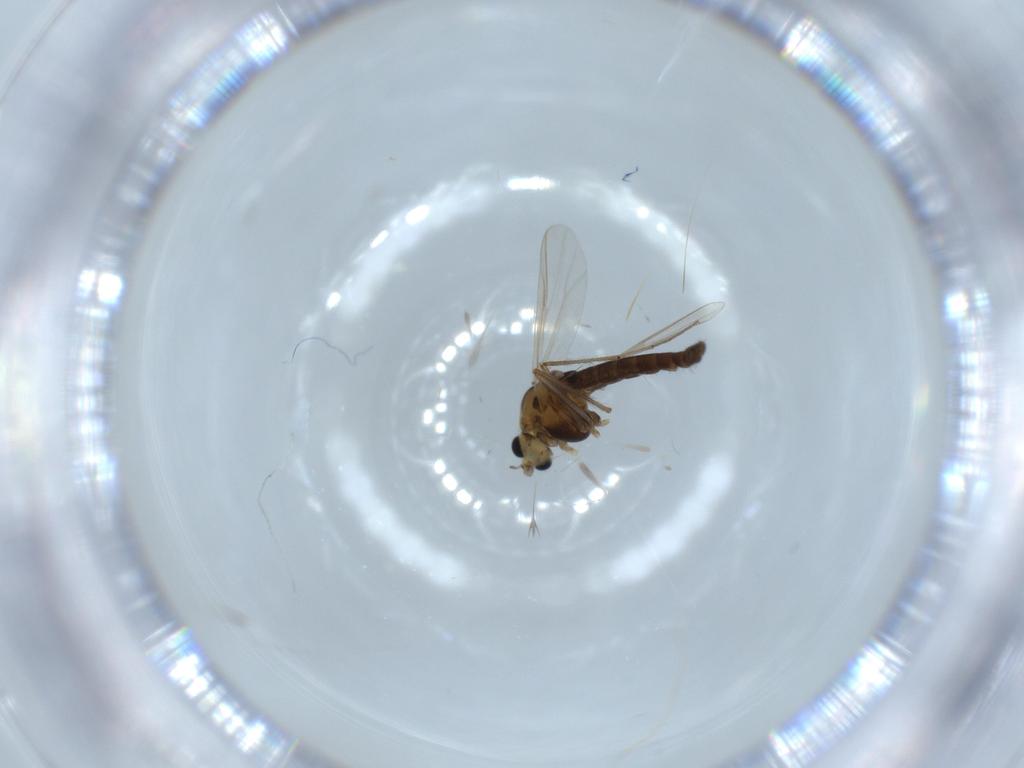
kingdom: Animalia
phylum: Arthropoda
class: Insecta
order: Diptera
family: Chironomidae
